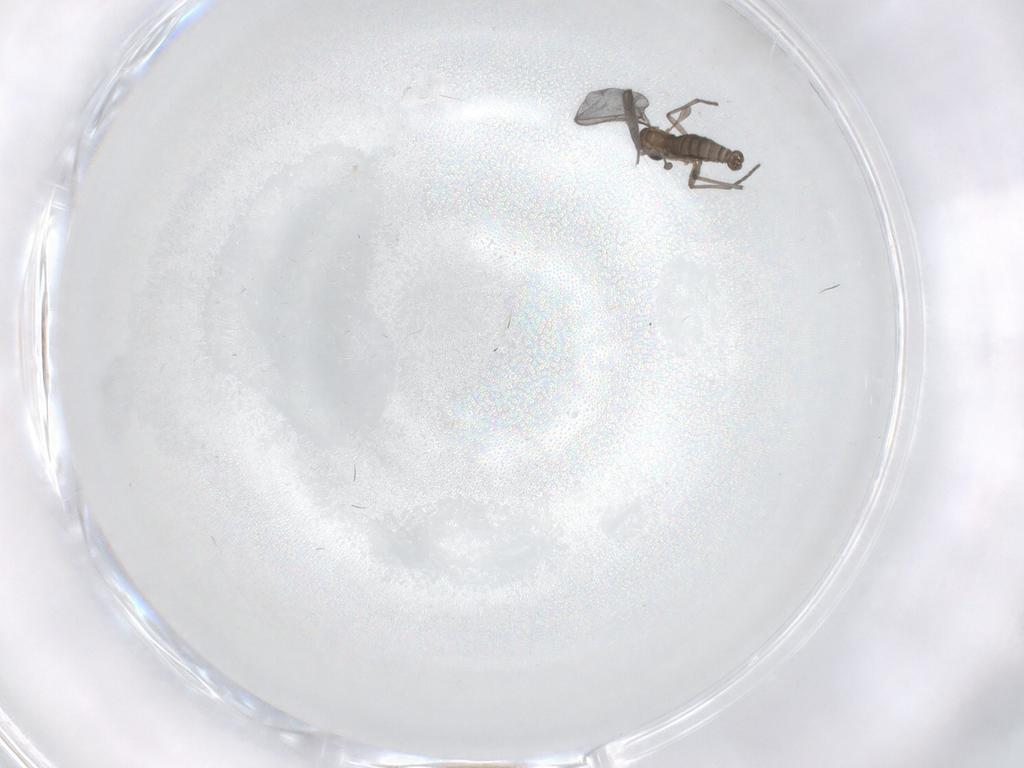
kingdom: Animalia
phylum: Arthropoda
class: Insecta
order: Diptera
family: Sciaridae
